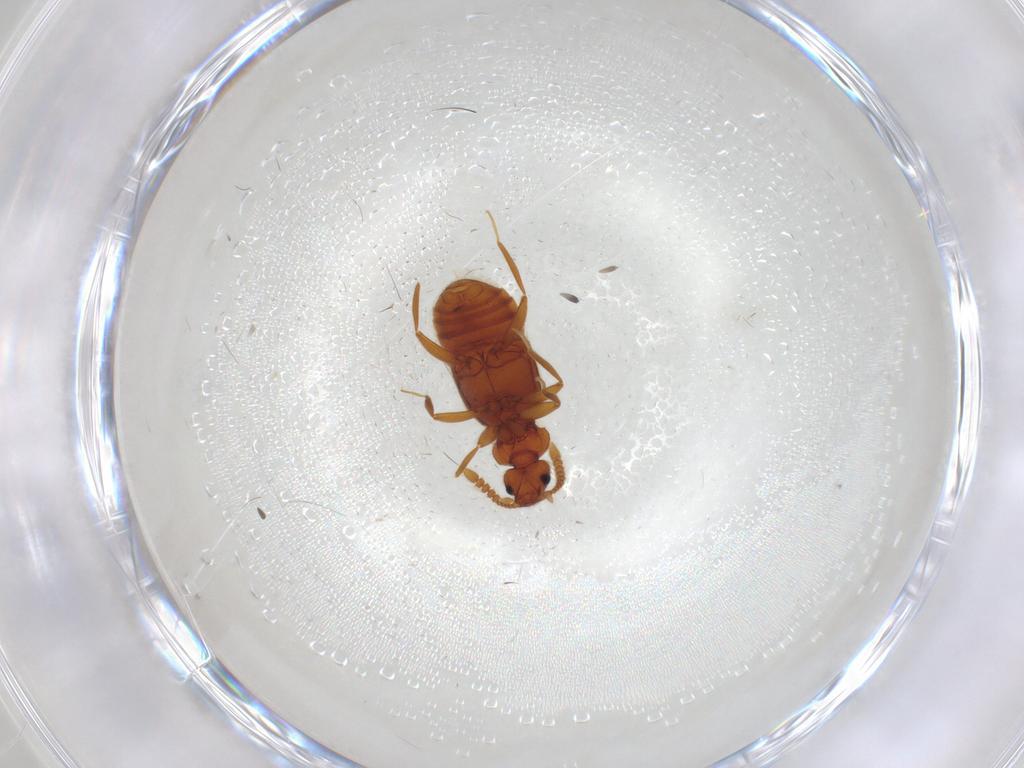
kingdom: Animalia
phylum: Arthropoda
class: Insecta
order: Coleoptera
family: Staphylinidae
